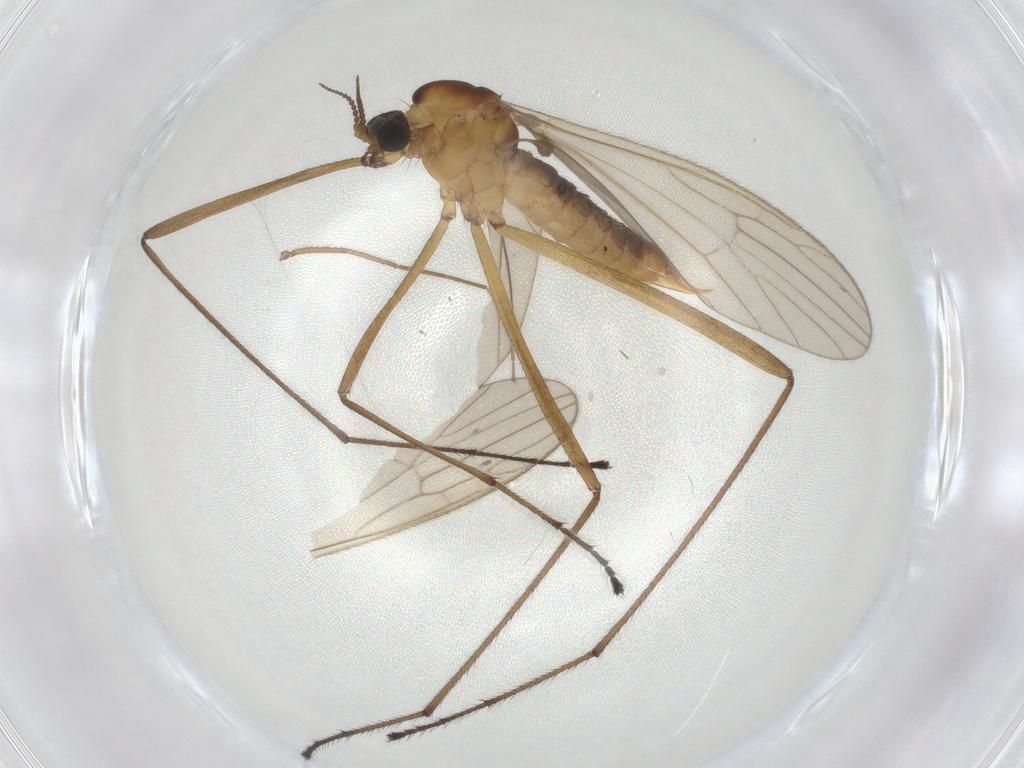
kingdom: Animalia
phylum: Arthropoda
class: Insecta
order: Diptera
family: Limoniidae
